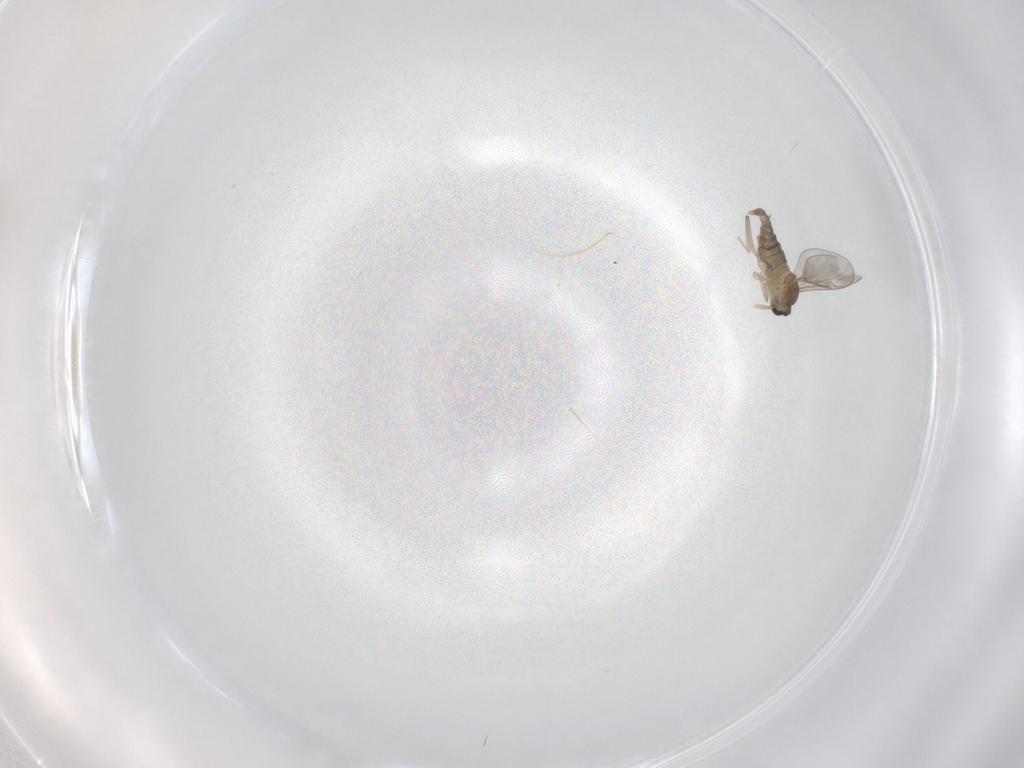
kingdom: Animalia
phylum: Arthropoda
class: Insecta
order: Diptera
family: Cecidomyiidae
